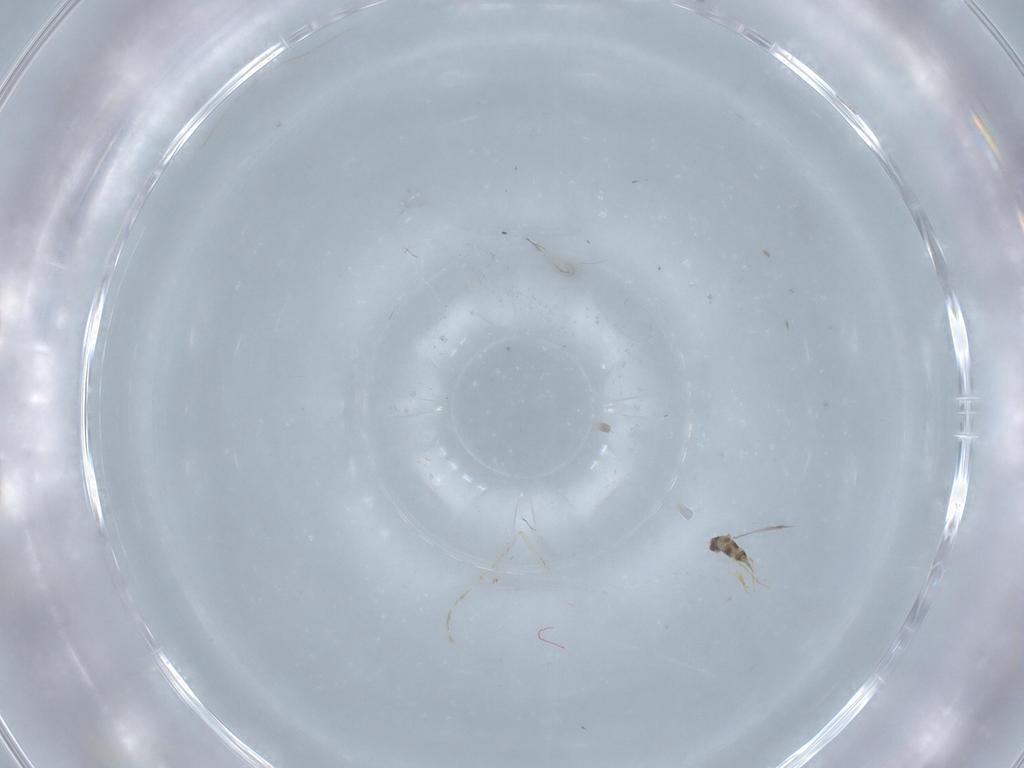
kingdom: Animalia
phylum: Arthropoda
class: Insecta
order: Hymenoptera
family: Mymaridae
